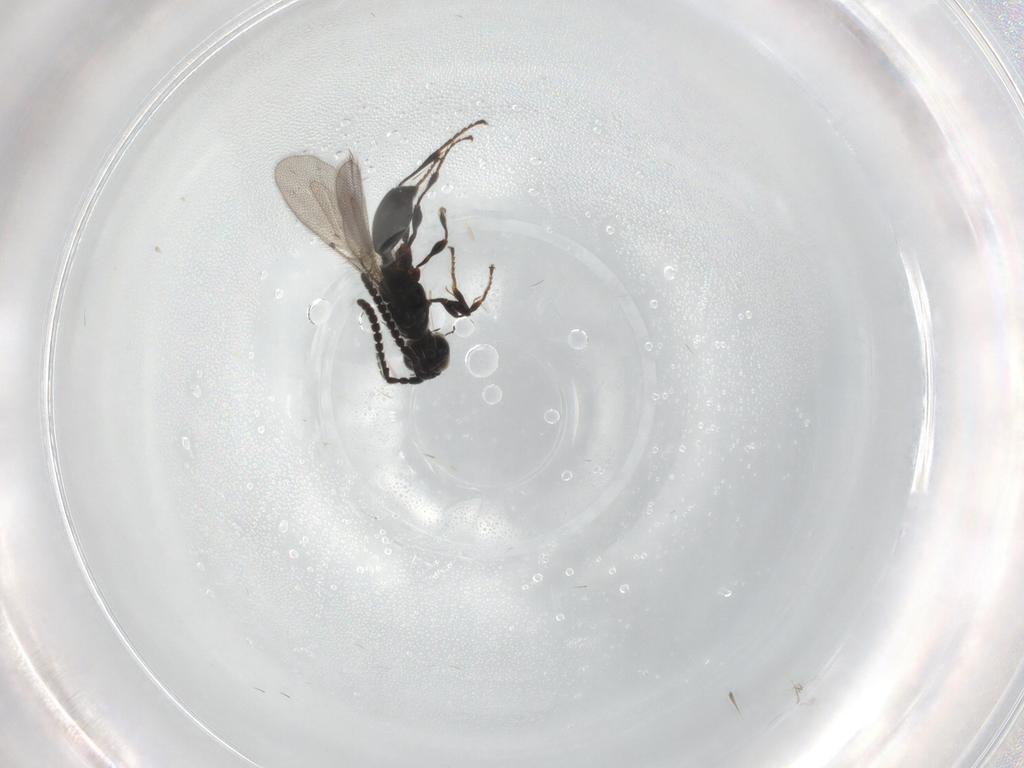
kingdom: Animalia
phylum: Arthropoda
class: Insecta
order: Hymenoptera
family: Diapriidae
